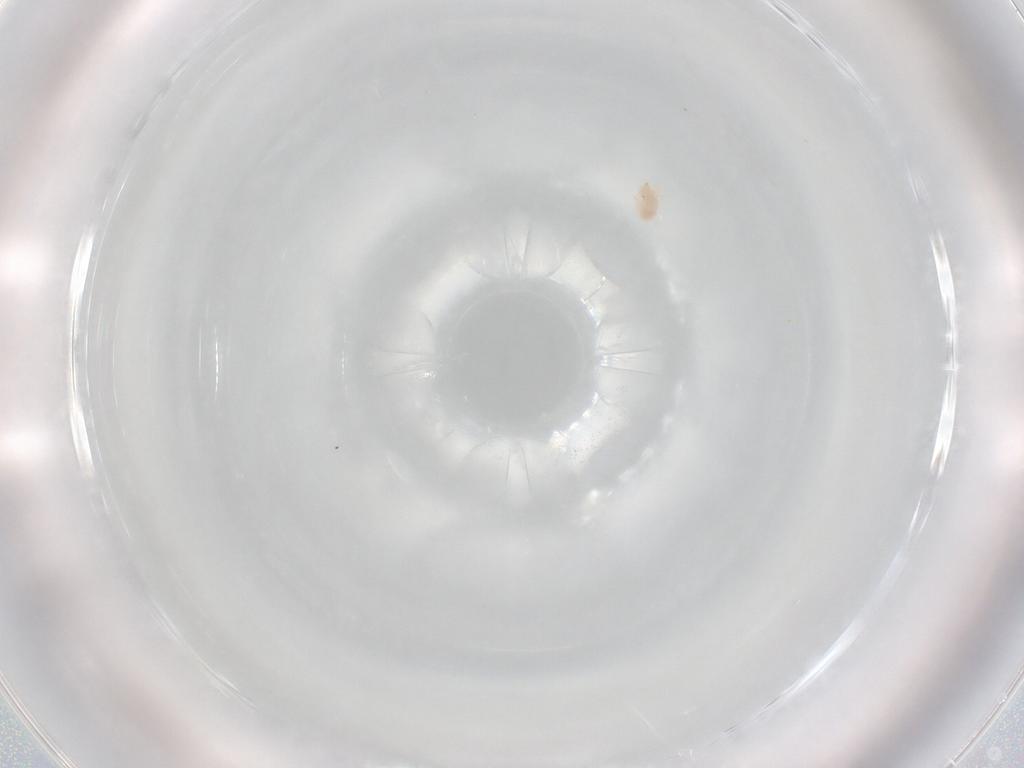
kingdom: Animalia
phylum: Arthropoda
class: Arachnida
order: Trombidiformes
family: Bdellidae
